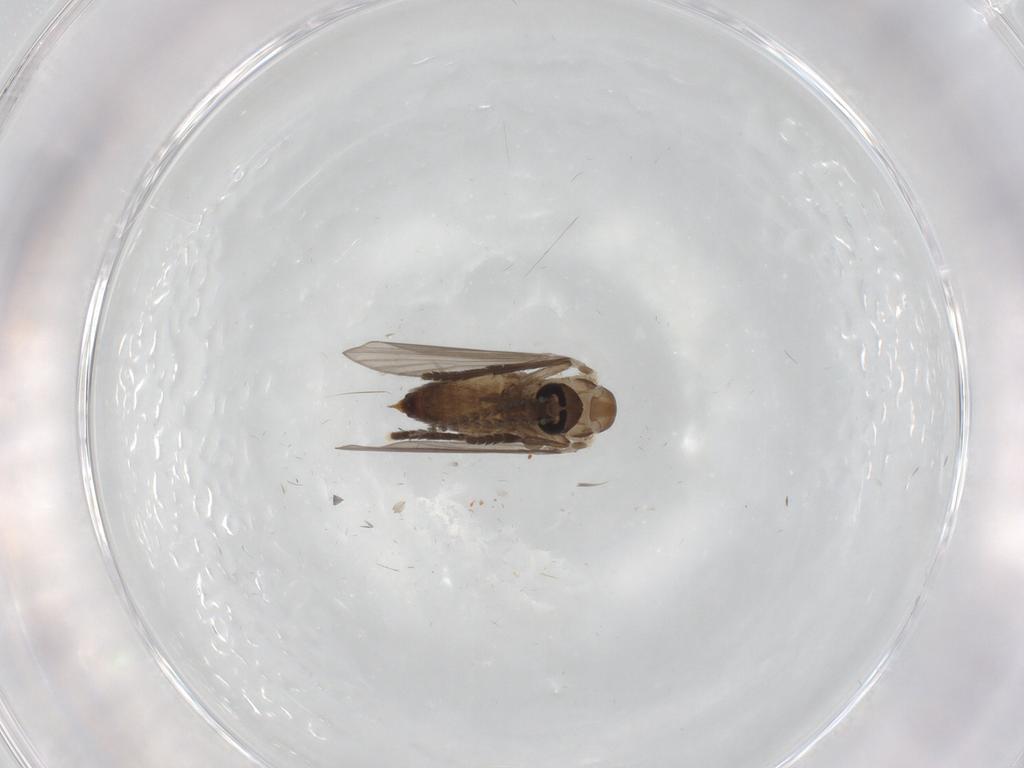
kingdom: Animalia
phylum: Arthropoda
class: Insecta
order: Diptera
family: Psychodidae
